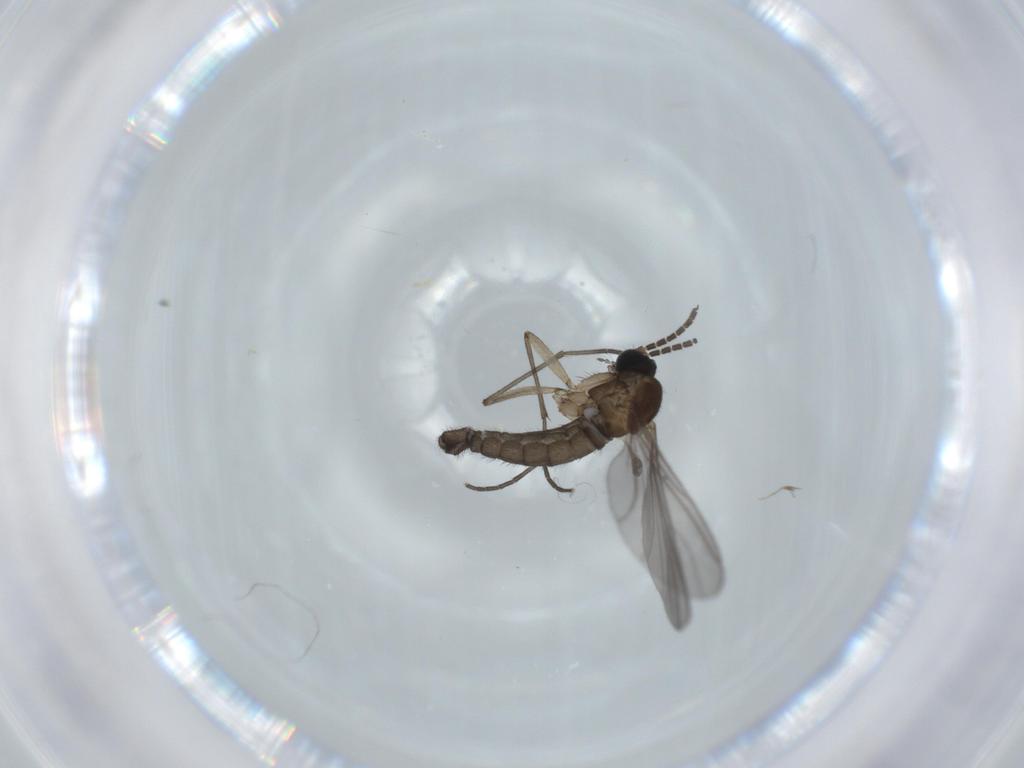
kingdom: Animalia
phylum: Arthropoda
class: Insecta
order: Diptera
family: Sciaridae
